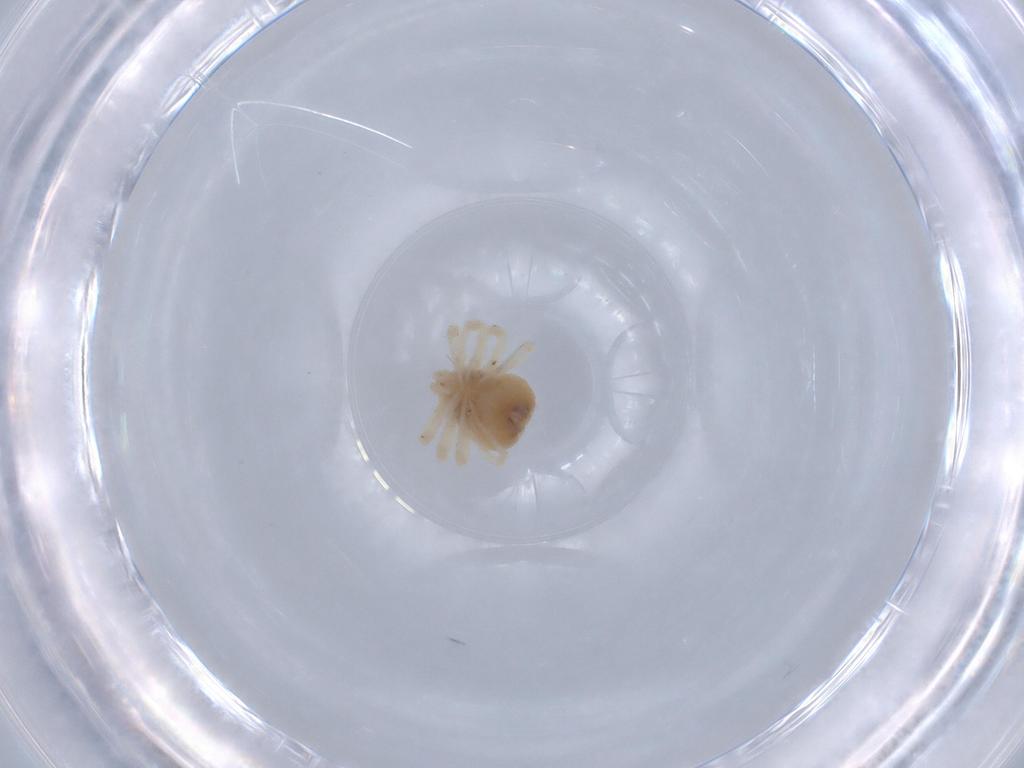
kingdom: Animalia
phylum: Arthropoda
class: Arachnida
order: Trombidiformes
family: Anystidae
